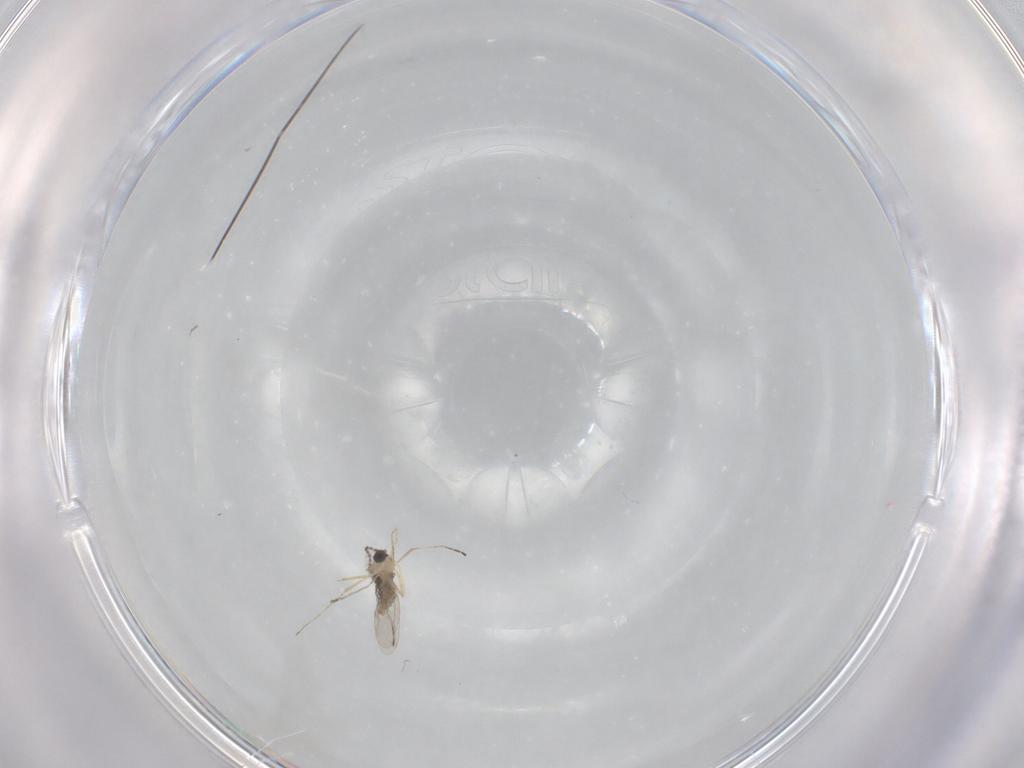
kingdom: Animalia
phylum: Arthropoda
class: Insecta
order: Diptera
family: Cecidomyiidae
